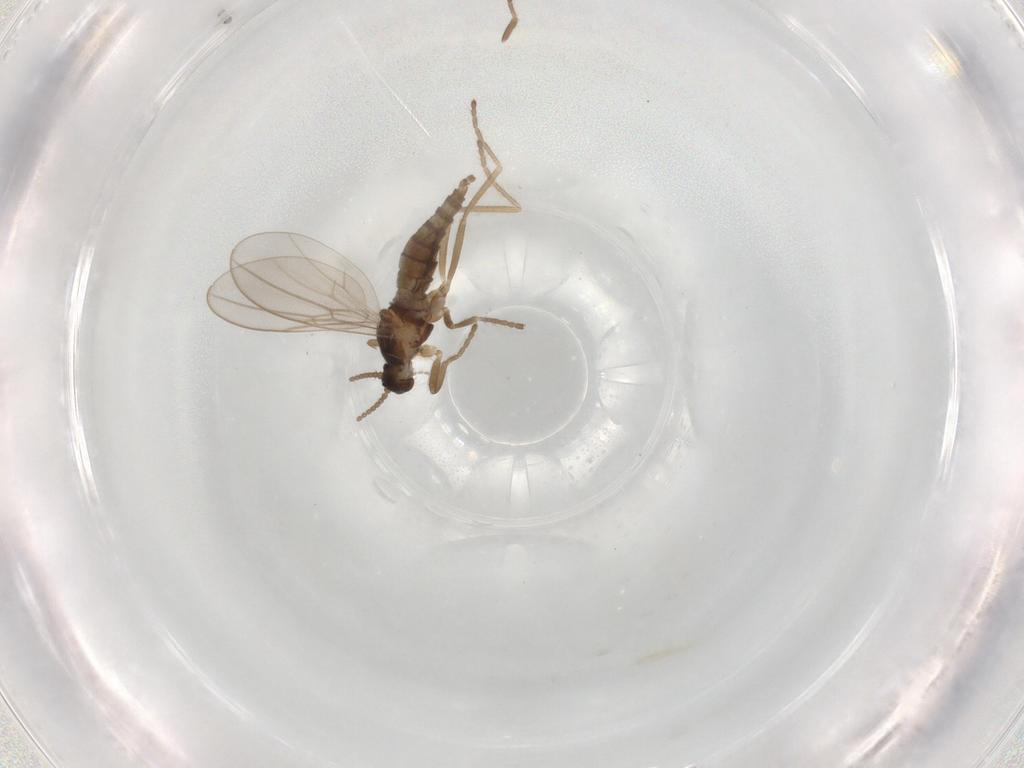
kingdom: Animalia
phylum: Arthropoda
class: Insecta
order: Diptera
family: Cecidomyiidae
